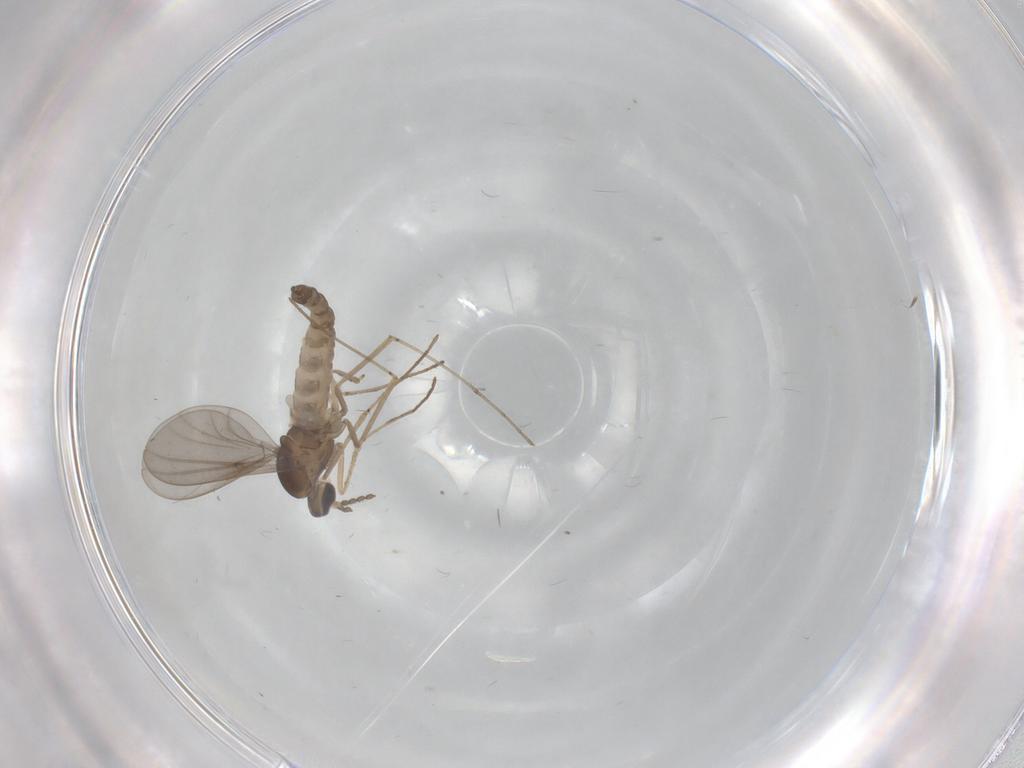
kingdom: Animalia
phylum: Arthropoda
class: Insecta
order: Diptera
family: Cecidomyiidae
